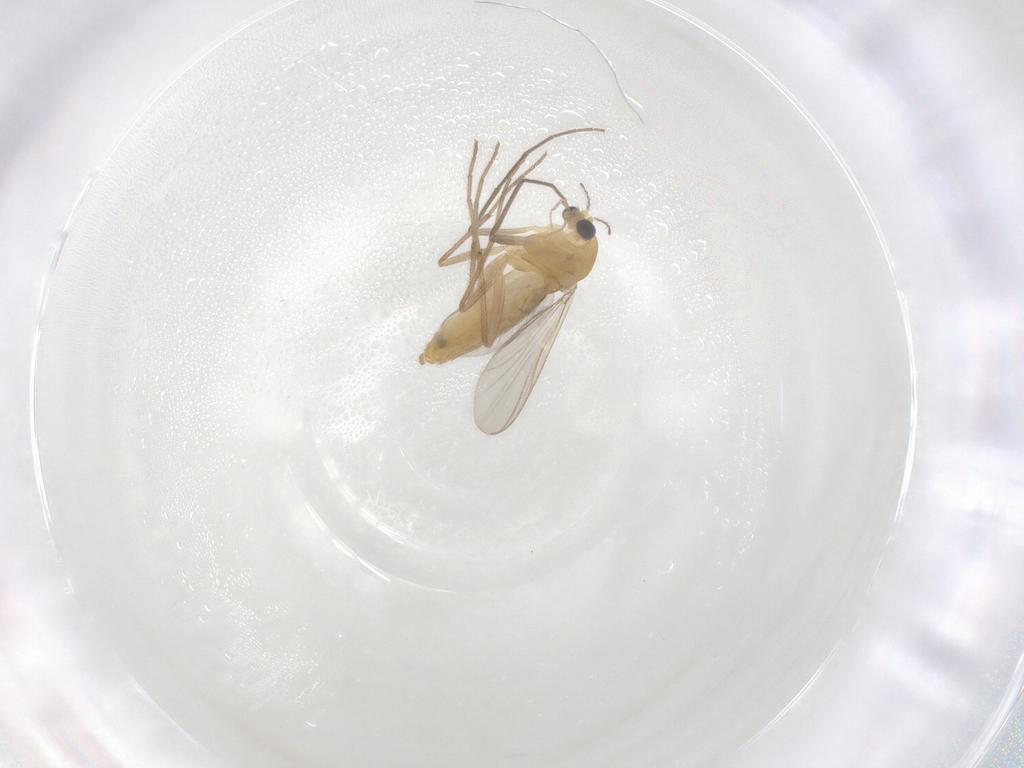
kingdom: Animalia
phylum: Arthropoda
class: Insecta
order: Diptera
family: Chironomidae
